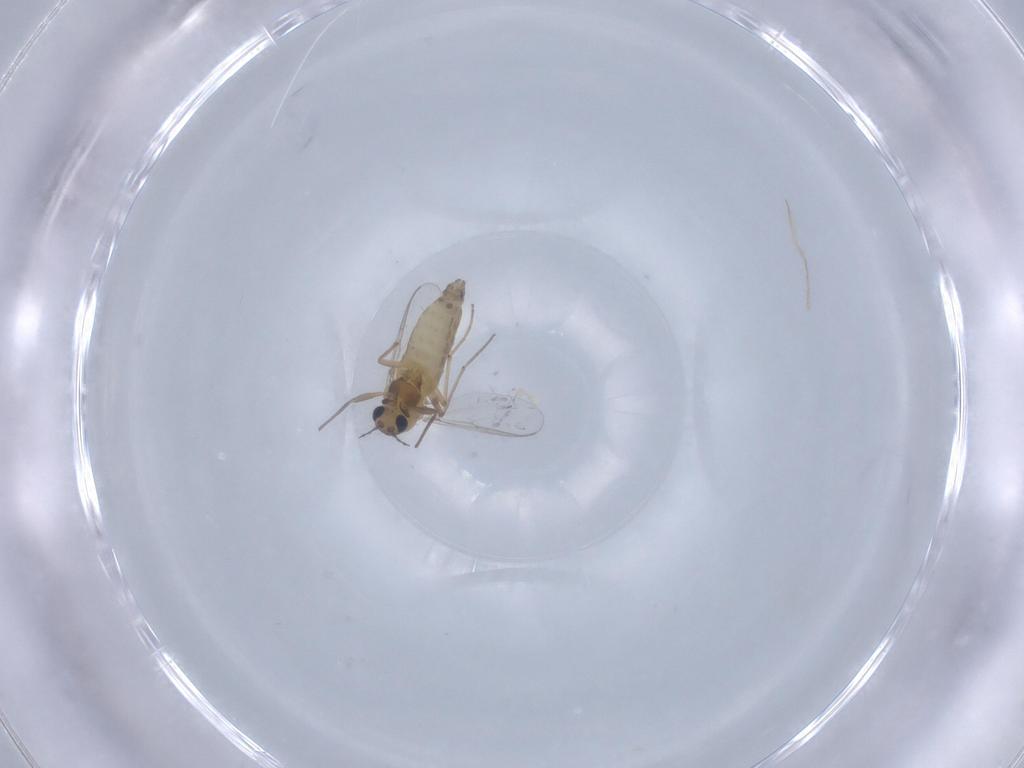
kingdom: Animalia
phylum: Arthropoda
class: Insecta
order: Diptera
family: Chironomidae
